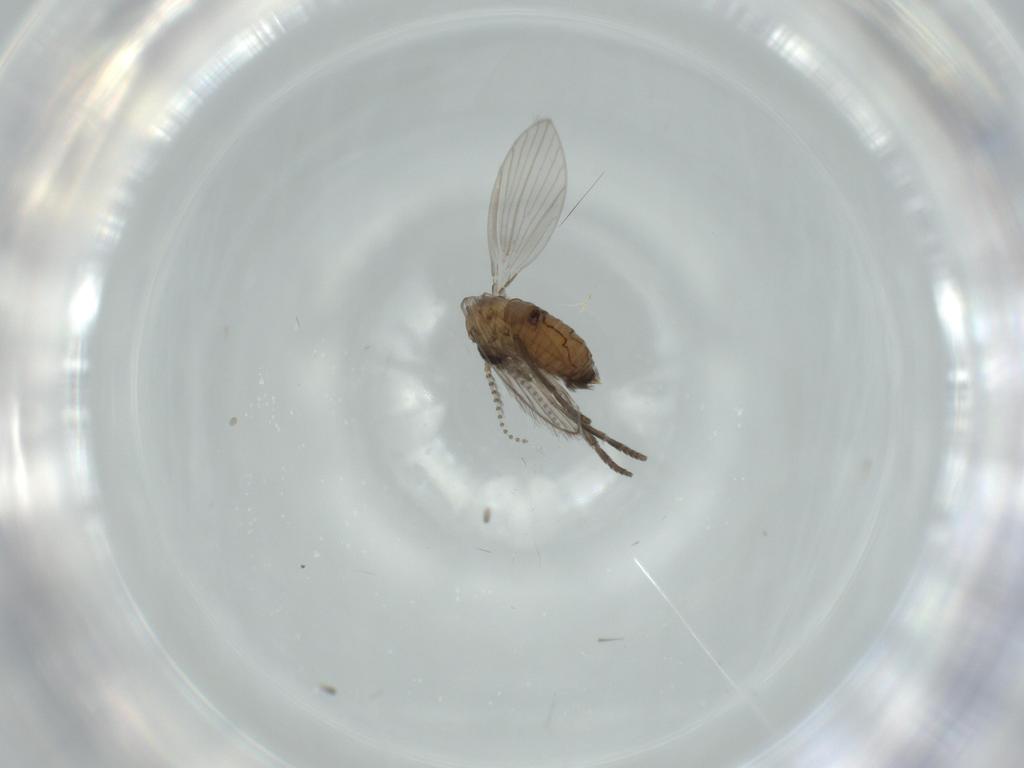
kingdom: Animalia
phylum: Arthropoda
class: Insecta
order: Diptera
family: Psychodidae
